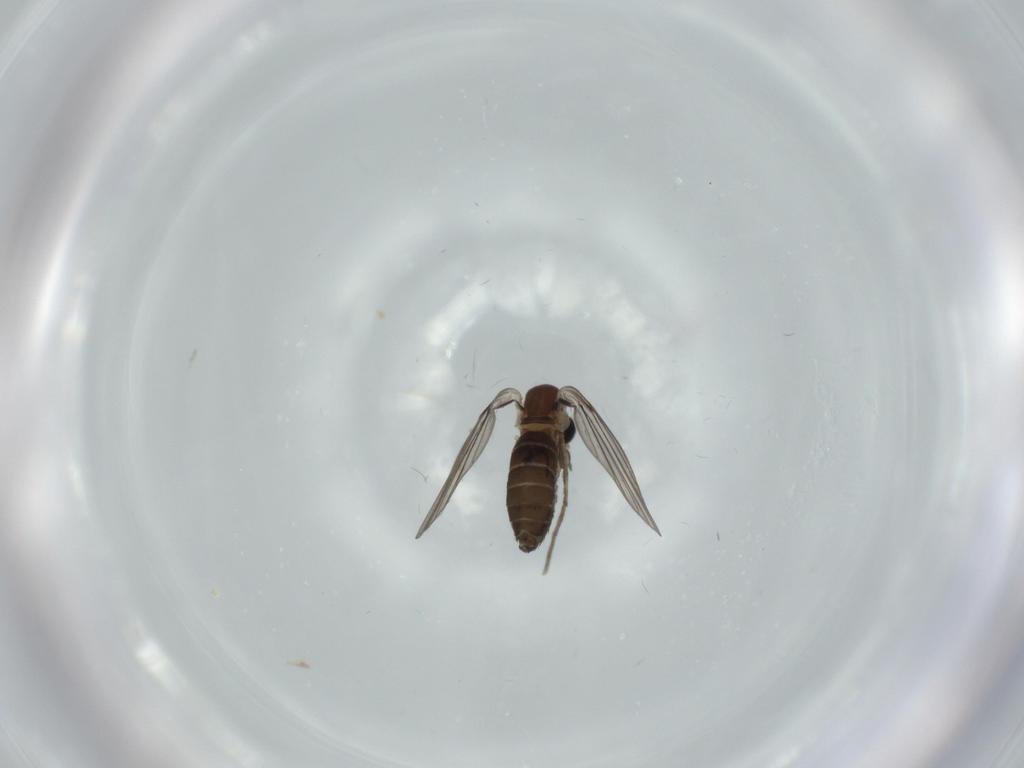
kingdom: Animalia
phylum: Arthropoda
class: Insecta
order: Diptera
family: Psychodidae
